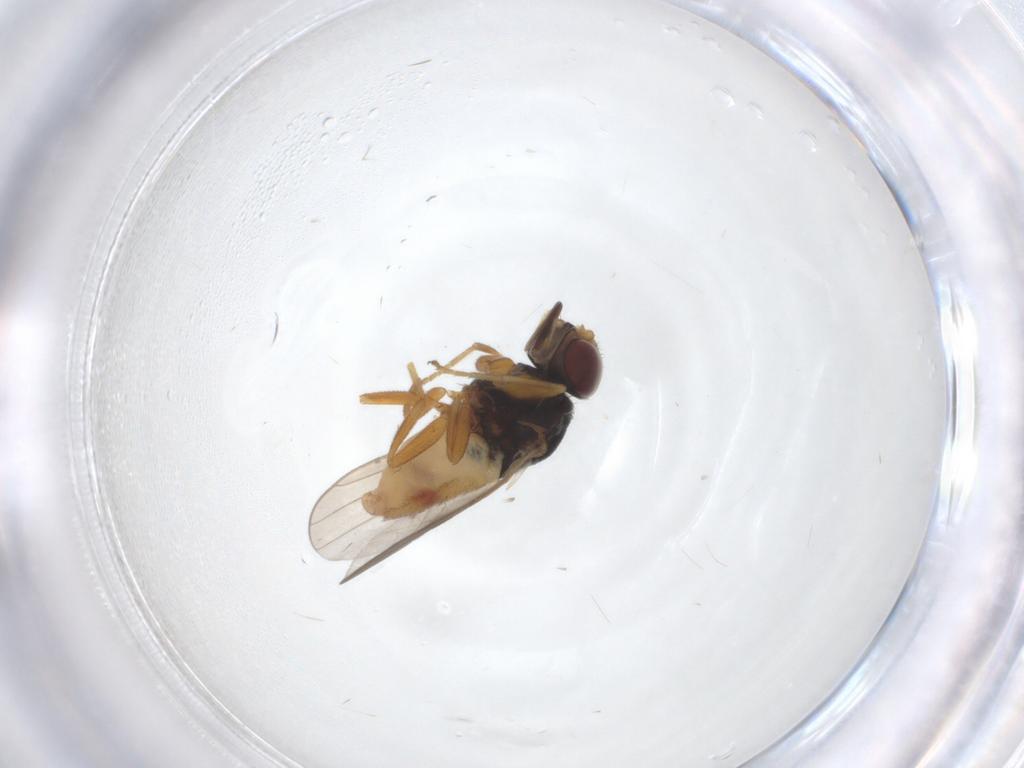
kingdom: Animalia
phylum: Arthropoda
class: Insecta
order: Diptera
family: Chloropidae
